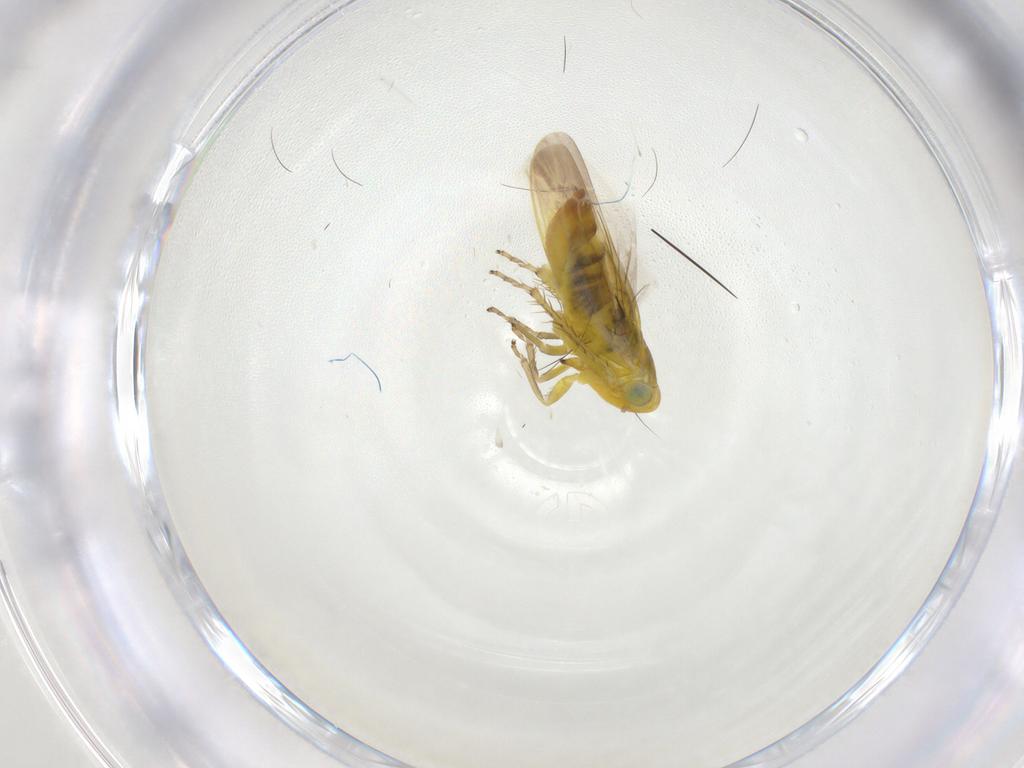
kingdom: Animalia
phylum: Arthropoda
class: Insecta
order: Hemiptera
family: Cicadellidae
